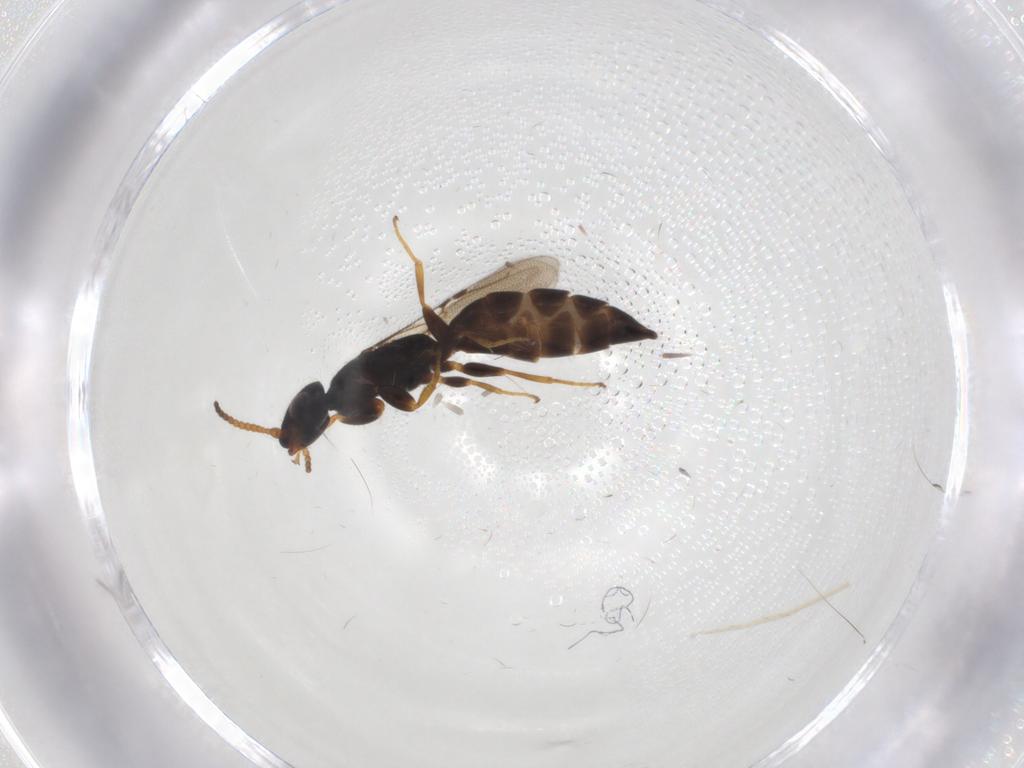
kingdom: Animalia
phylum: Arthropoda
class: Insecta
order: Hymenoptera
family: Bethylidae
